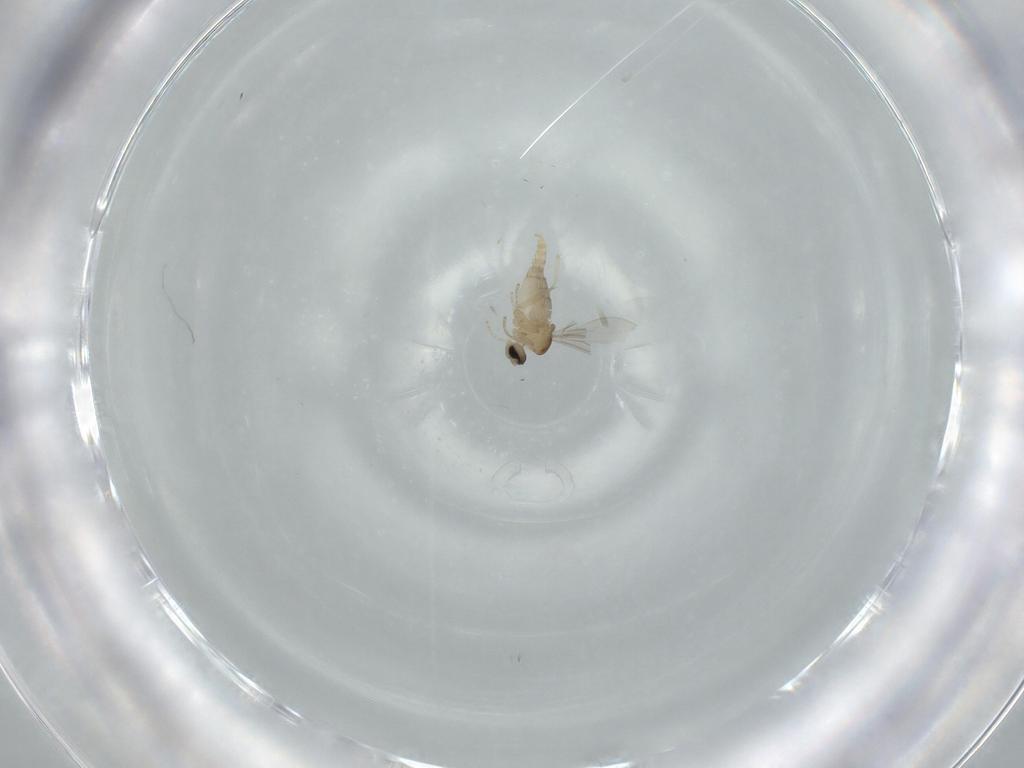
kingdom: Animalia
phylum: Arthropoda
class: Insecta
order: Diptera
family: Cecidomyiidae
